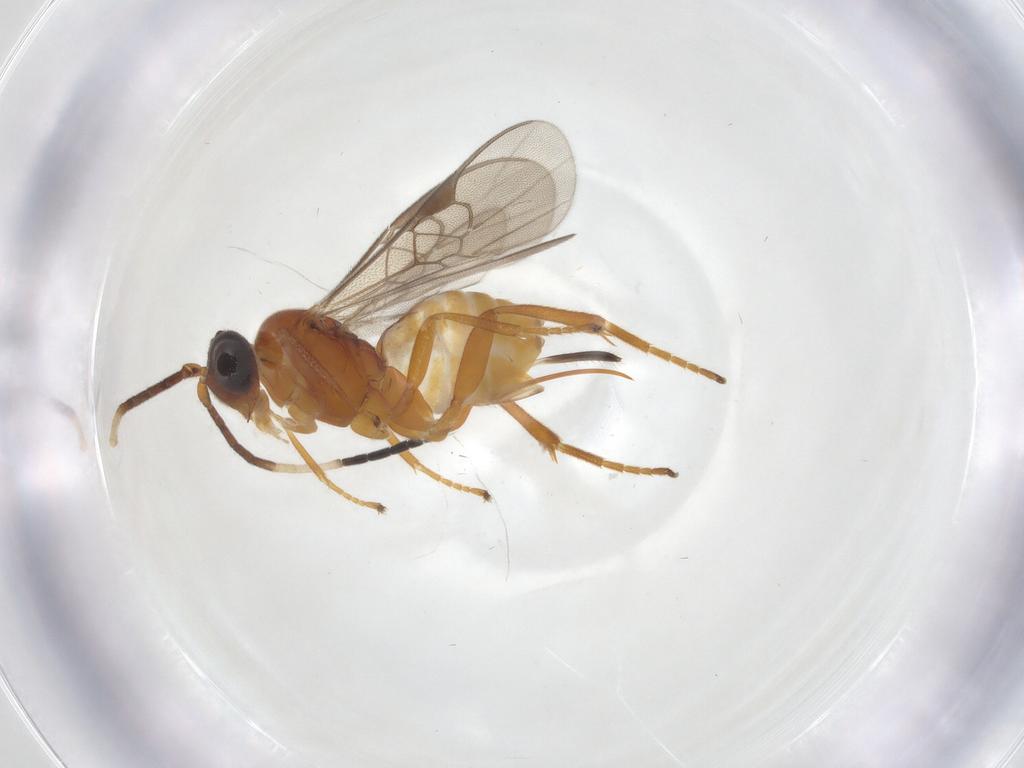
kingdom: Animalia
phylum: Arthropoda
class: Insecta
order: Hymenoptera
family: Braconidae
